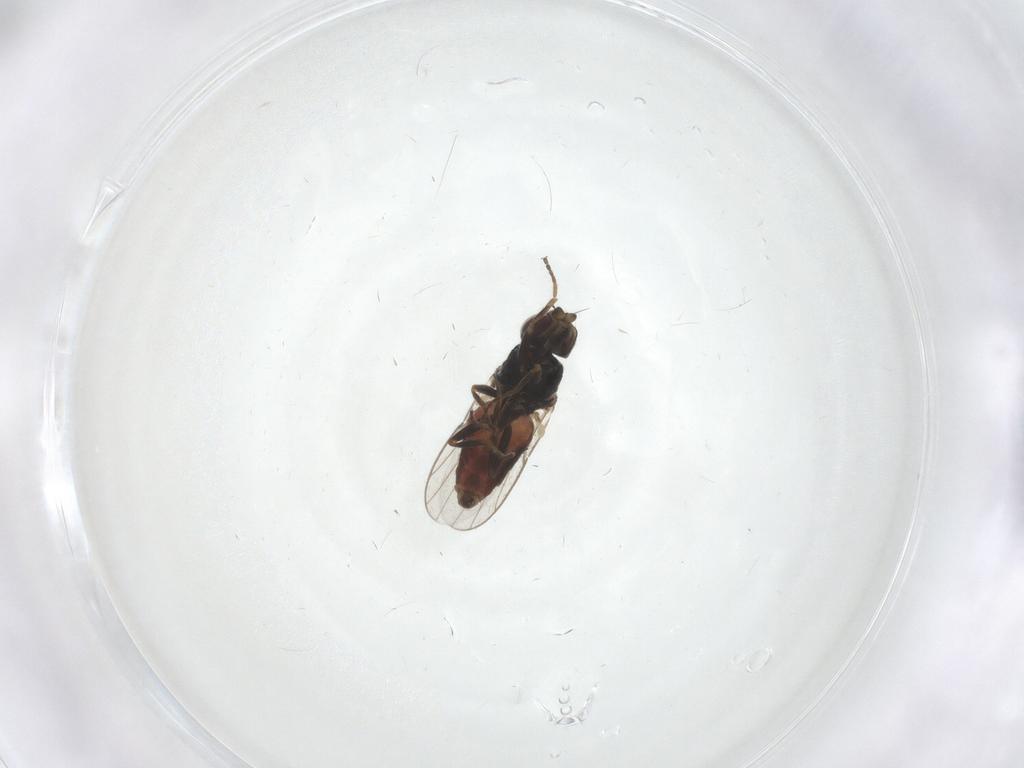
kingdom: Animalia
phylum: Arthropoda
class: Insecta
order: Diptera
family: Chloropidae
